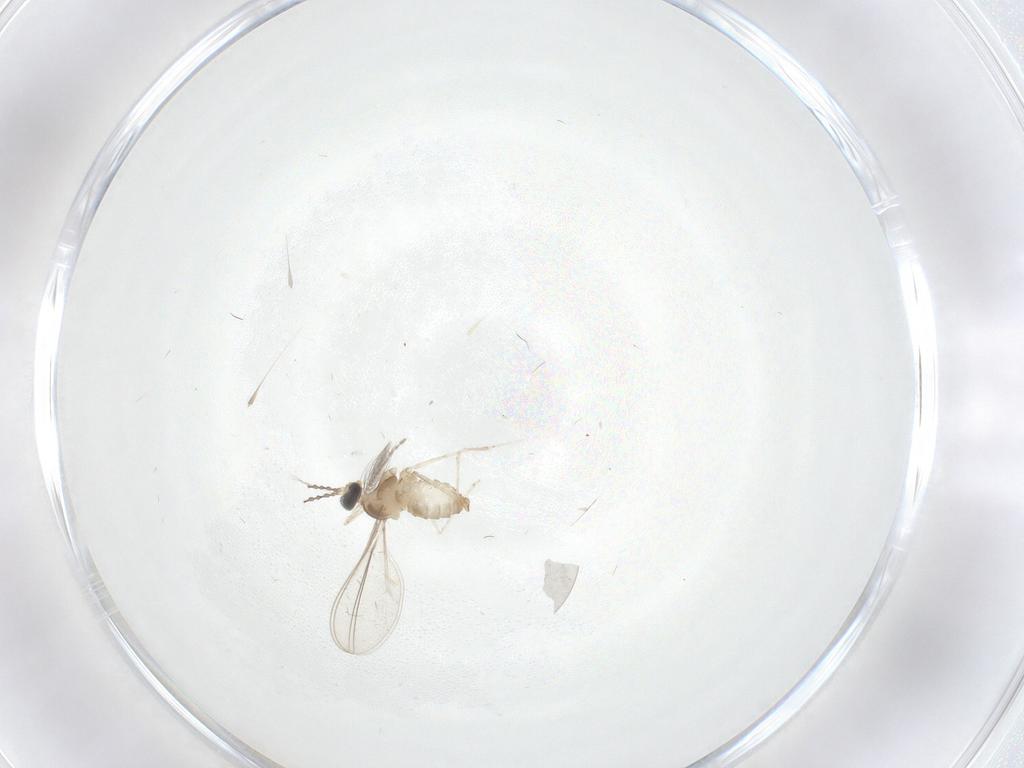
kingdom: Animalia
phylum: Arthropoda
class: Insecta
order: Diptera
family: Cecidomyiidae
